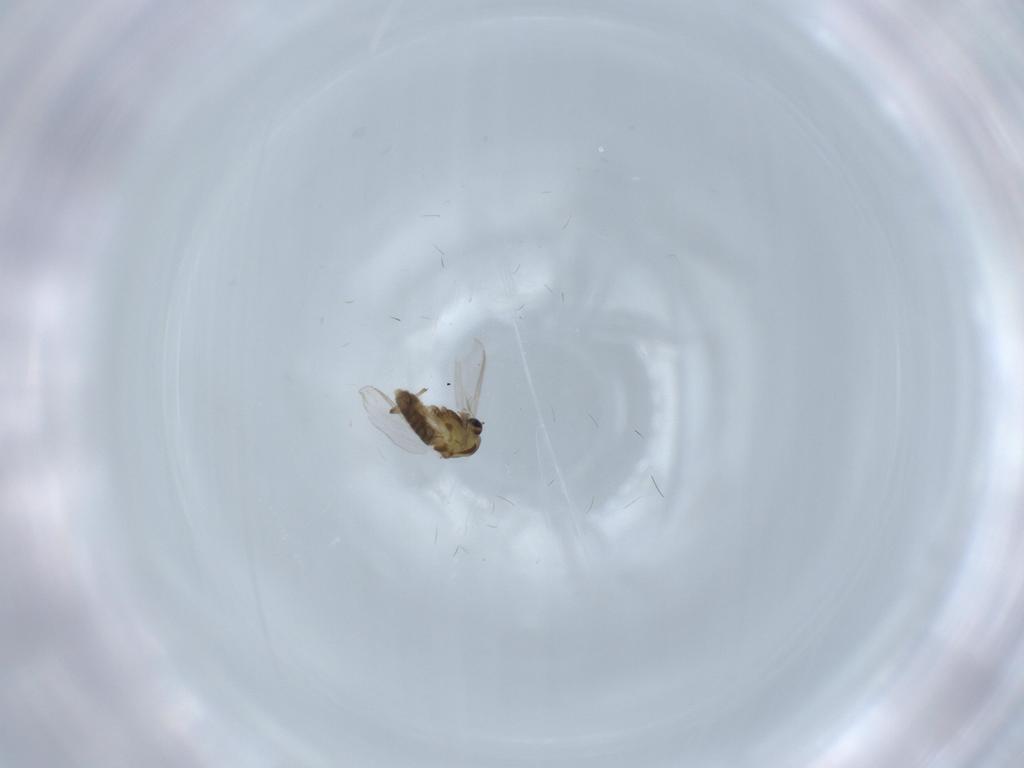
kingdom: Animalia
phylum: Arthropoda
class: Insecta
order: Diptera
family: Chironomidae
